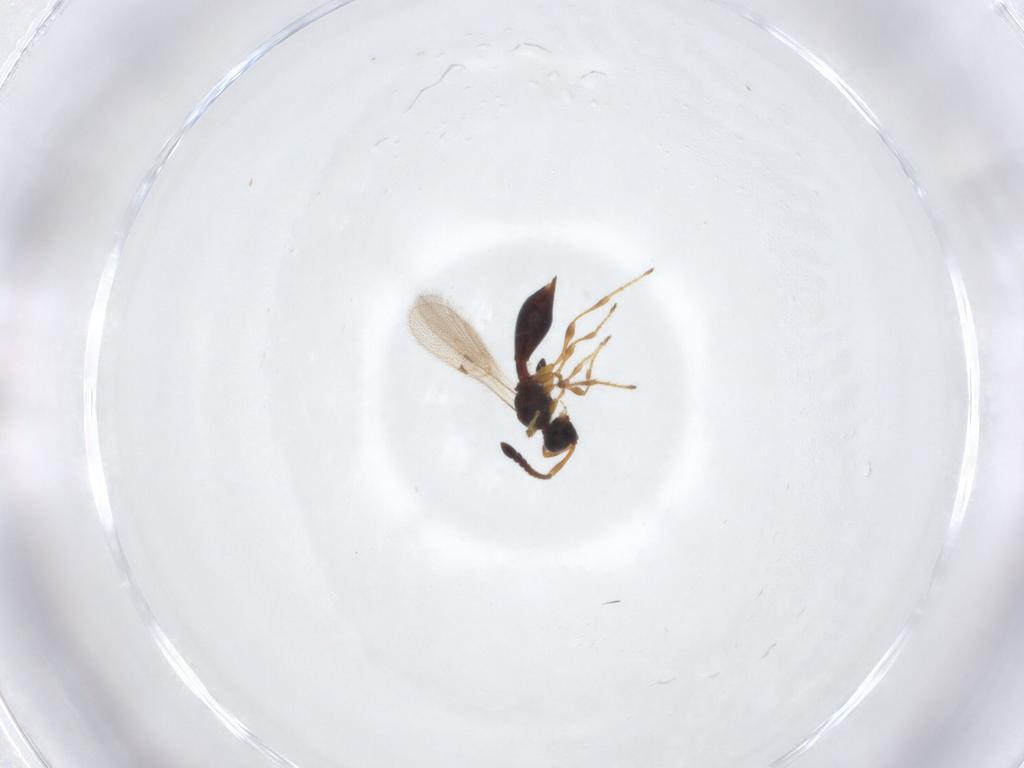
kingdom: Animalia
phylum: Arthropoda
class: Insecta
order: Hymenoptera
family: Diapriidae
